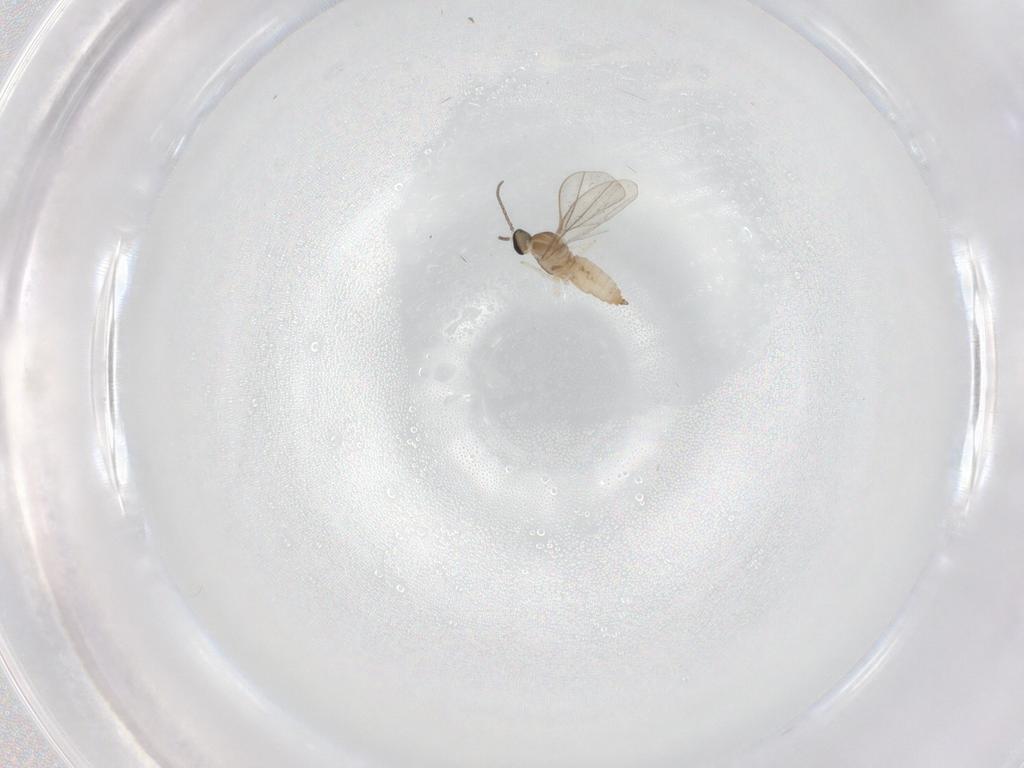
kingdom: Animalia
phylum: Arthropoda
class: Insecta
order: Diptera
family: Cecidomyiidae
